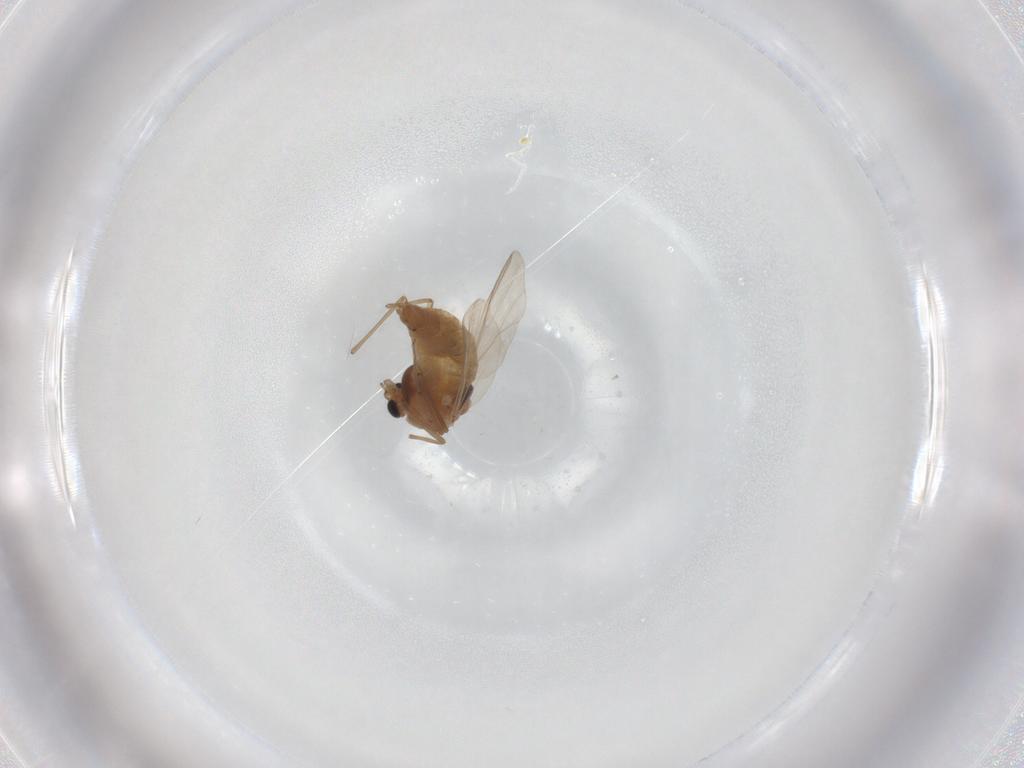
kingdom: Animalia
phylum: Arthropoda
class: Insecta
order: Diptera
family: Chironomidae
